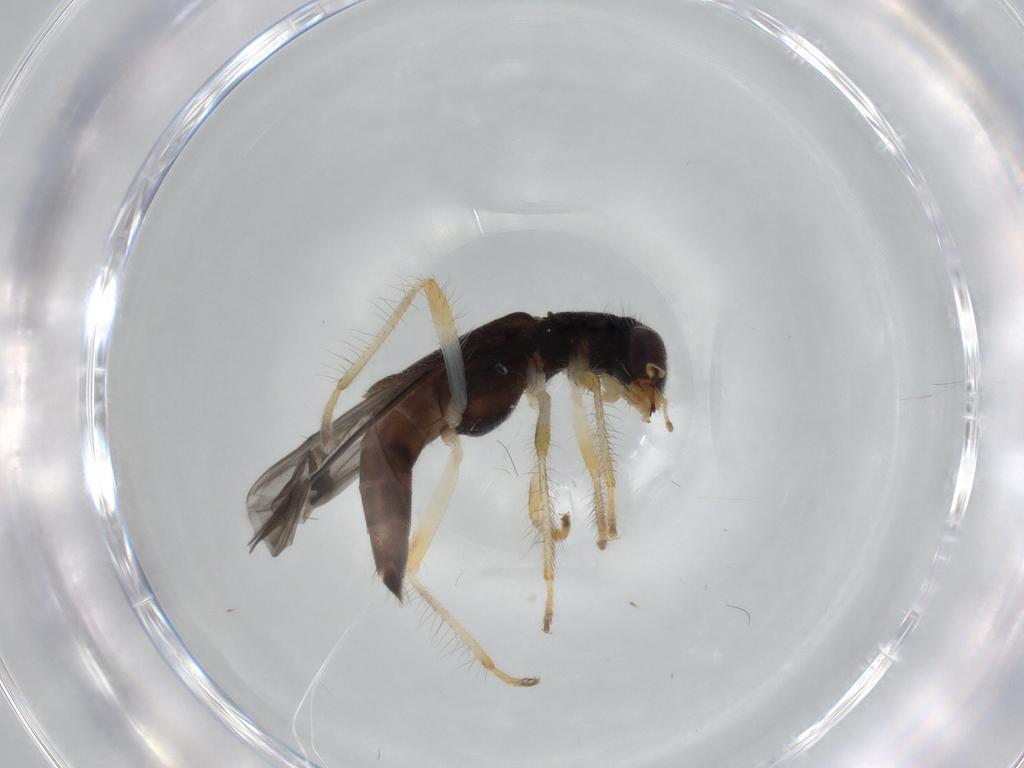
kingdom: Animalia
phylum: Arthropoda
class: Insecta
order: Coleoptera
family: Cleridae
